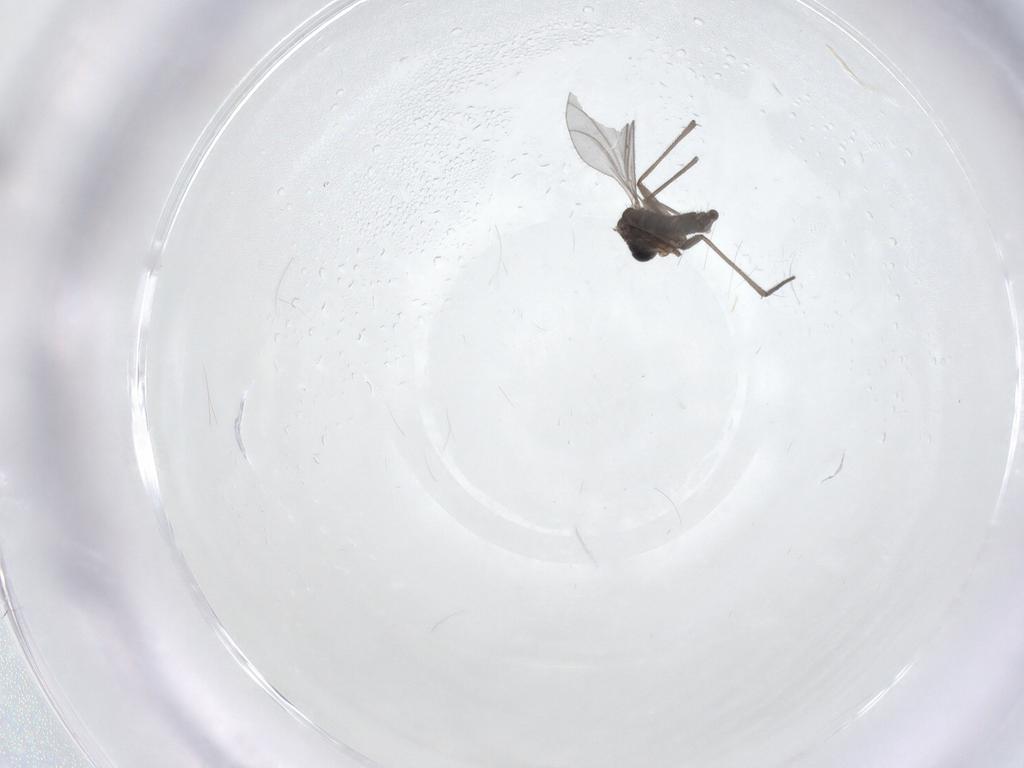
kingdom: Animalia
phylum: Arthropoda
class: Insecta
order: Diptera
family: Sciaridae
